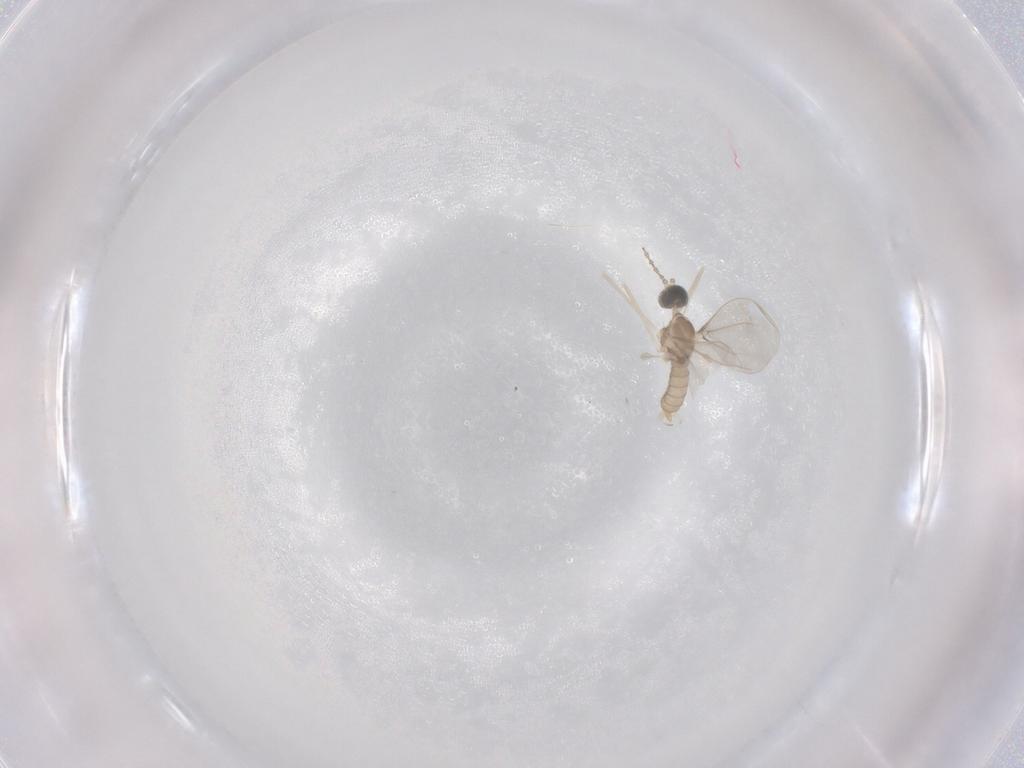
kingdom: Animalia
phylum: Arthropoda
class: Insecta
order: Diptera
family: Cecidomyiidae
